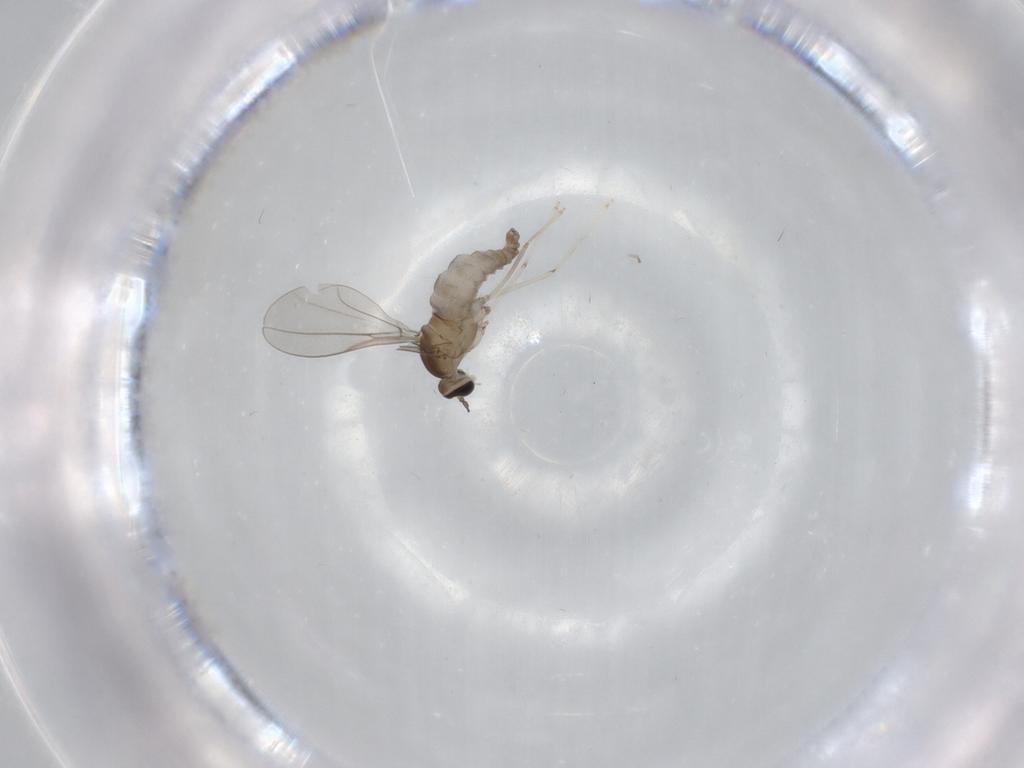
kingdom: Animalia
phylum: Arthropoda
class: Insecta
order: Diptera
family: Cecidomyiidae
